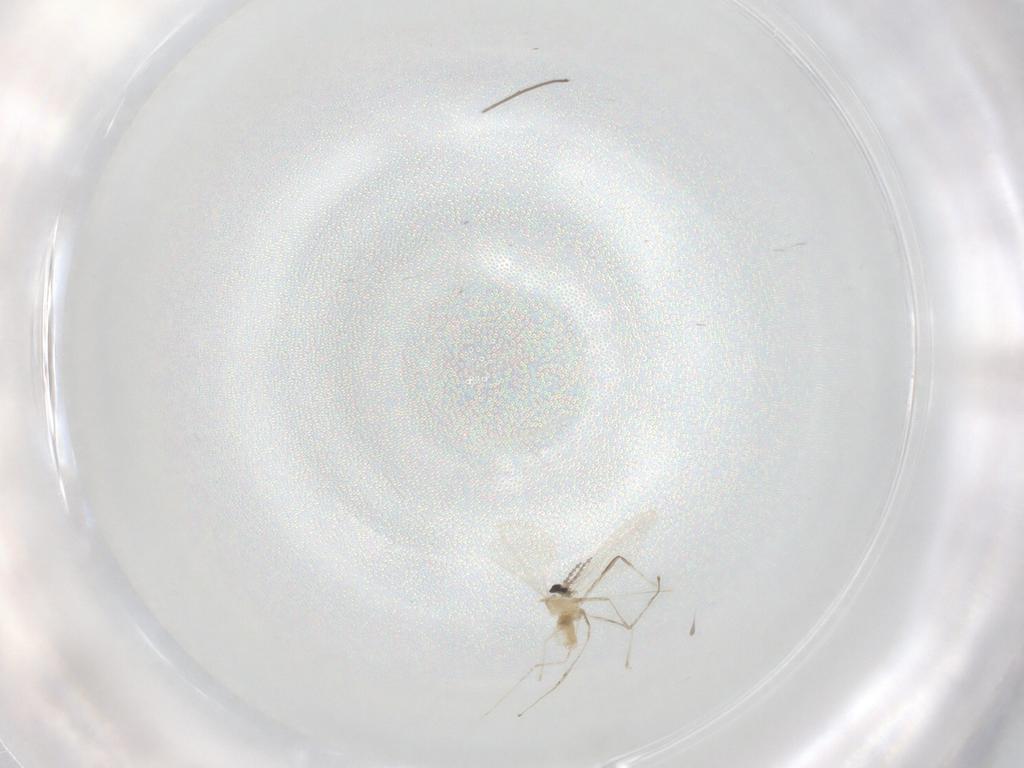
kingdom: Animalia
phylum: Arthropoda
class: Insecta
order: Diptera
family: Cecidomyiidae
